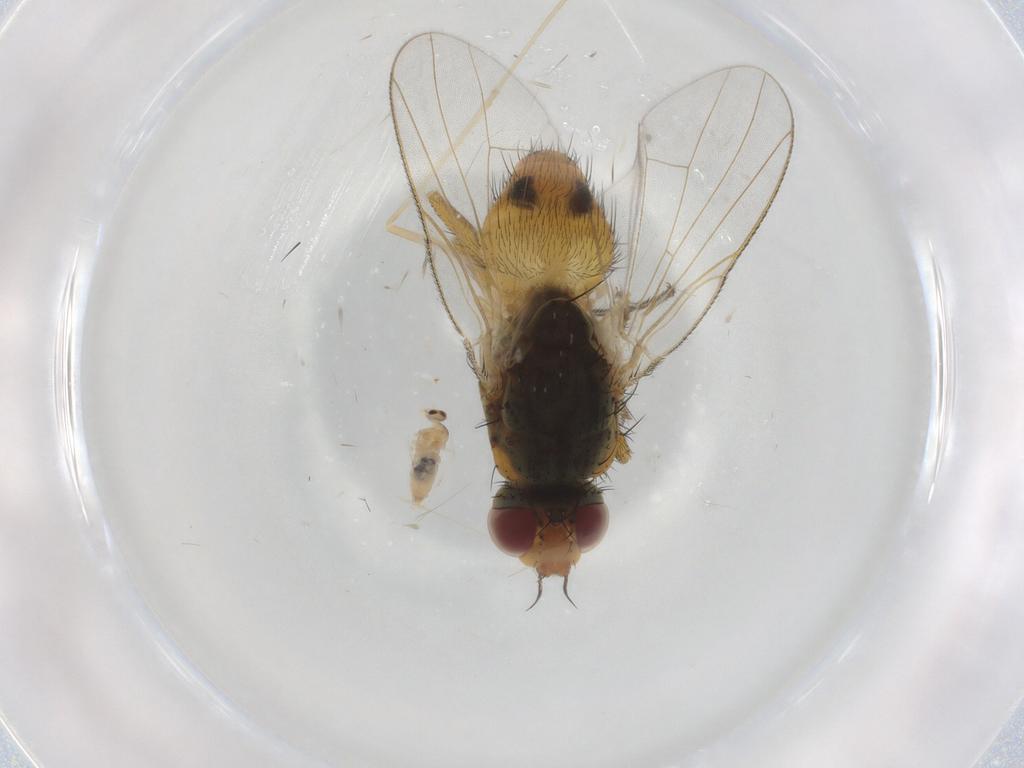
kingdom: Animalia
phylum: Arthropoda
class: Insecta
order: Diptera
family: Muscidae
